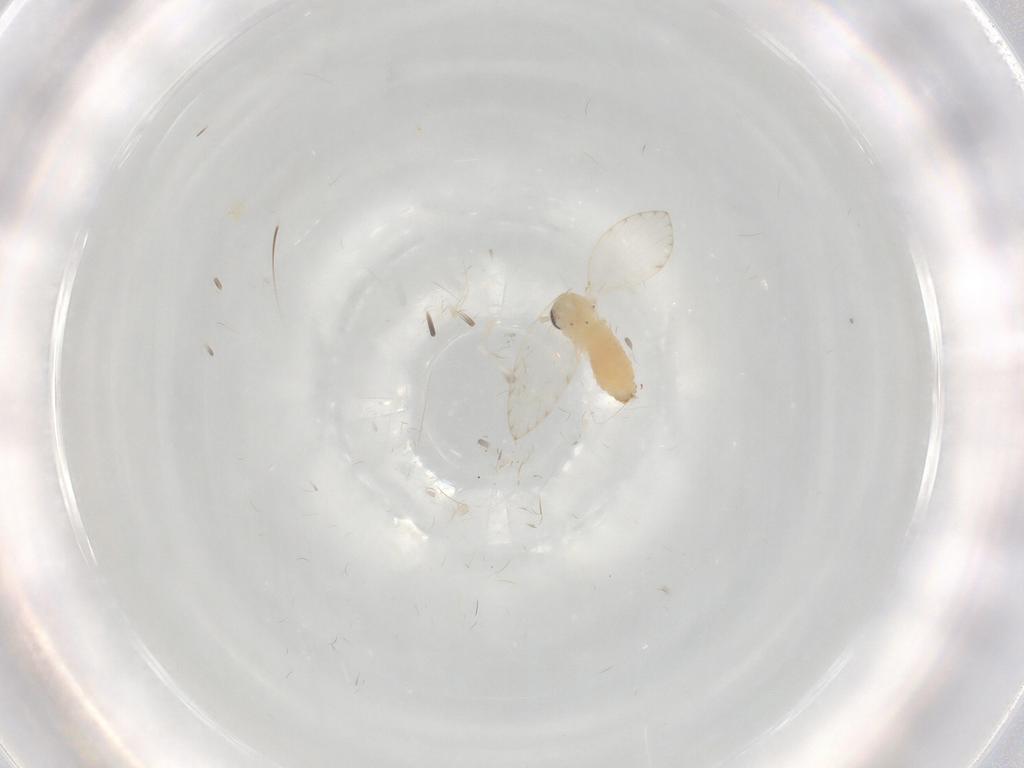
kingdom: Animalia
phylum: Arthropoda
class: Insecta
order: Diptera
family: Psychodidae
